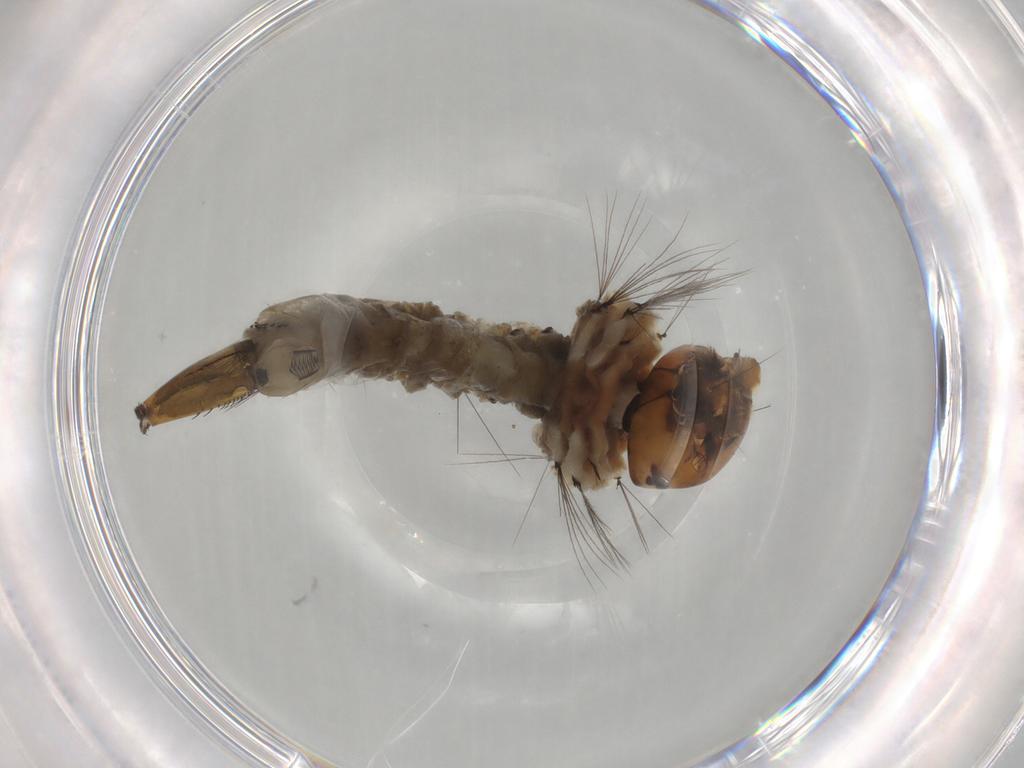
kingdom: Animalia
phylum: Arthropoda
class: Insecta
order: Diptera
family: Culicidae
